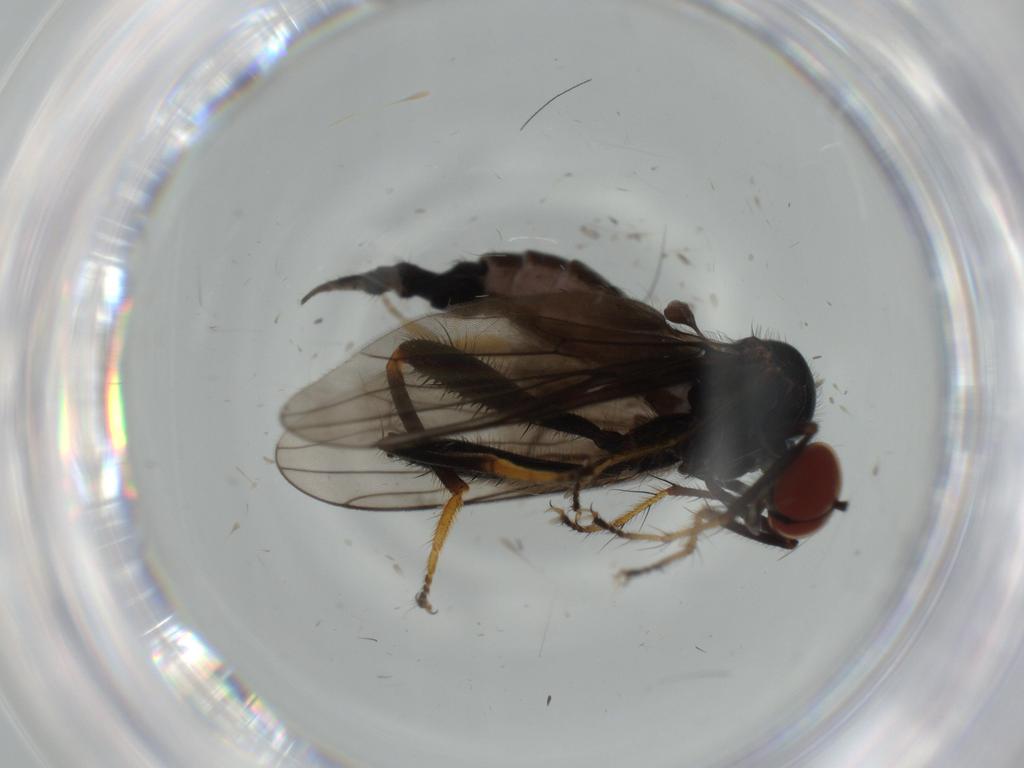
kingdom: Animalia
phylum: Arthropoda
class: Insecta
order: Diptera
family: Hybotidae
